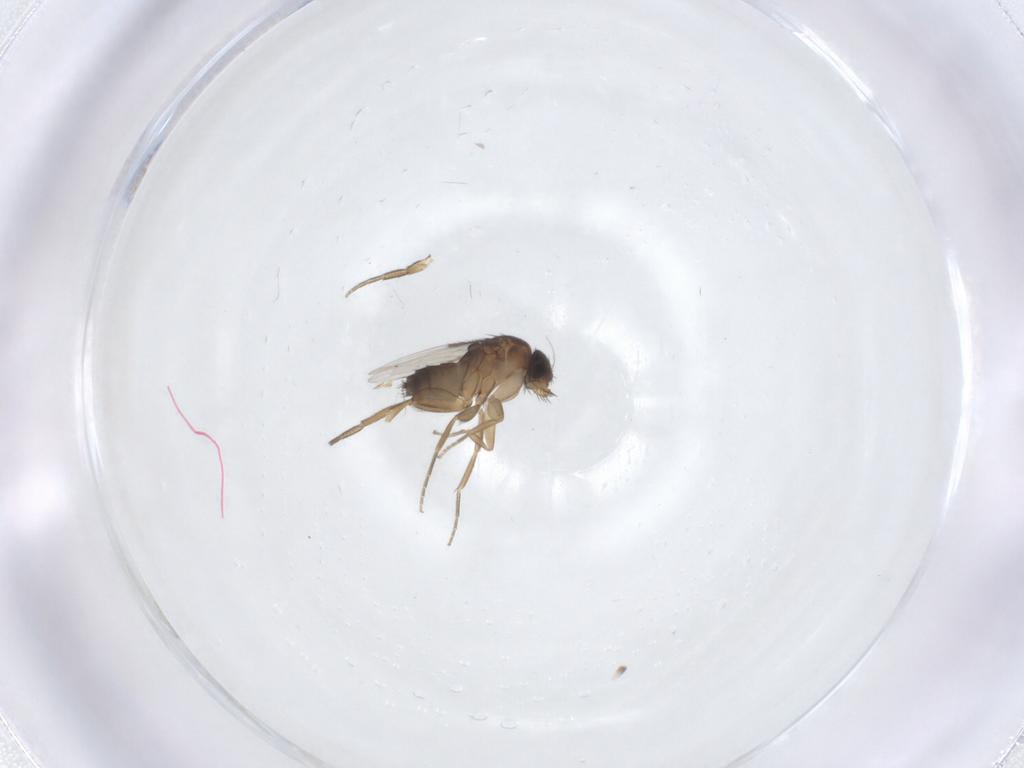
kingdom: Animalia
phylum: Arthropoda
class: Insecta
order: Diptera
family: Phoridae
